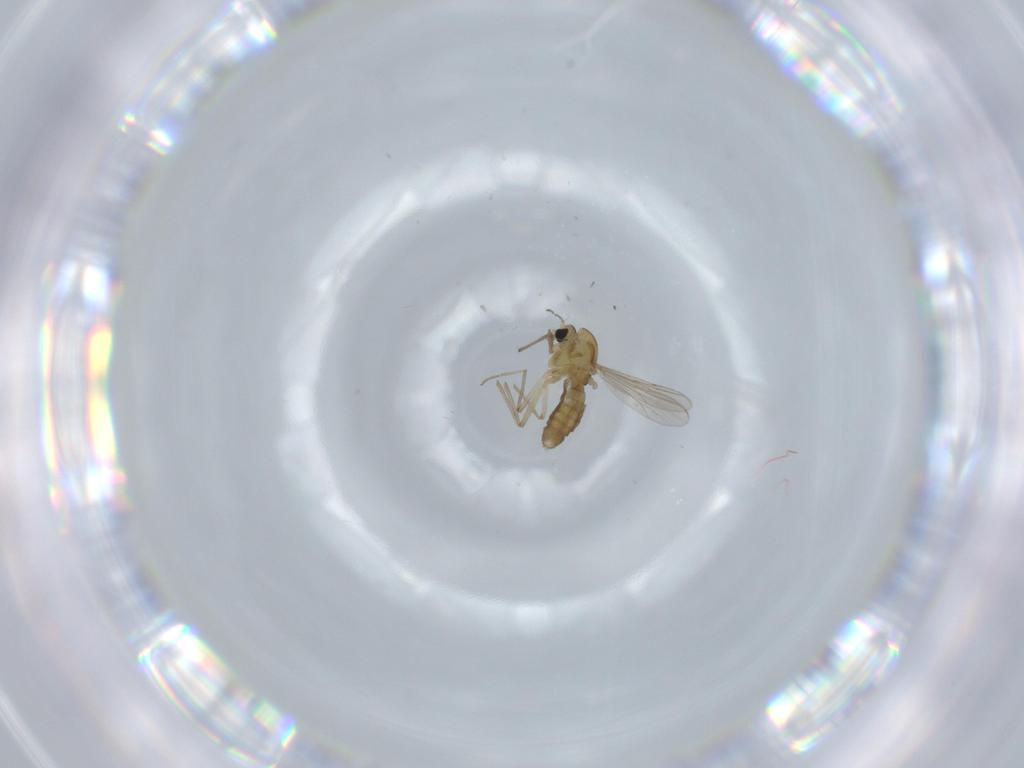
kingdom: Animalia
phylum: Arthropoda
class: Insecta
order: Diptera
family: Chironomidae
